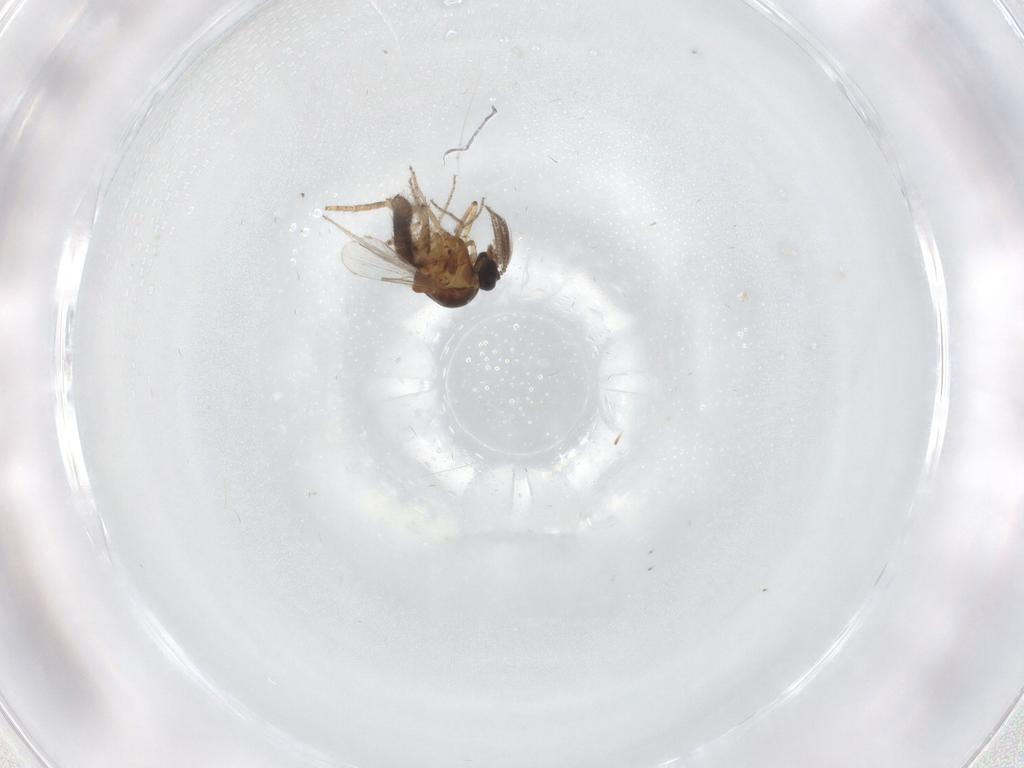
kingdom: Animalia
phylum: Arthropoda
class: Insecta
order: Diptera
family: Ceratopogonidae
